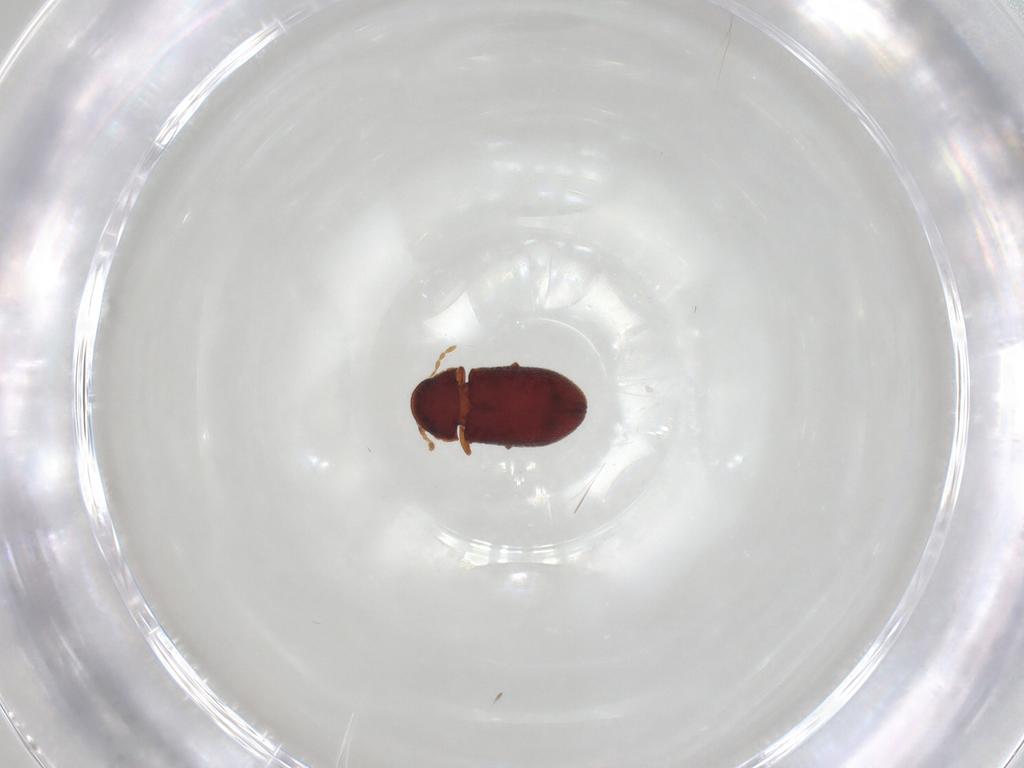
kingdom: Animalia
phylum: Arthropoda
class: Insecta
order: Coleoptera
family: Ptinidae
